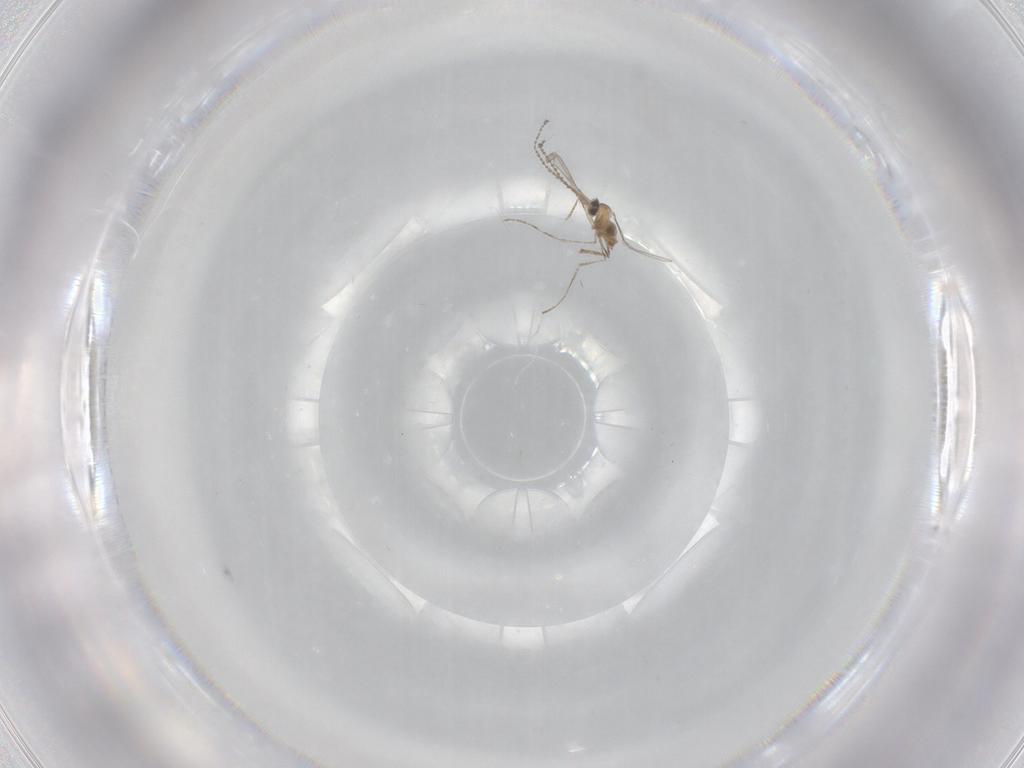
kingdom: Animalia
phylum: Arthropoda
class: Insecta
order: Diptera
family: Cecidomyiidae
